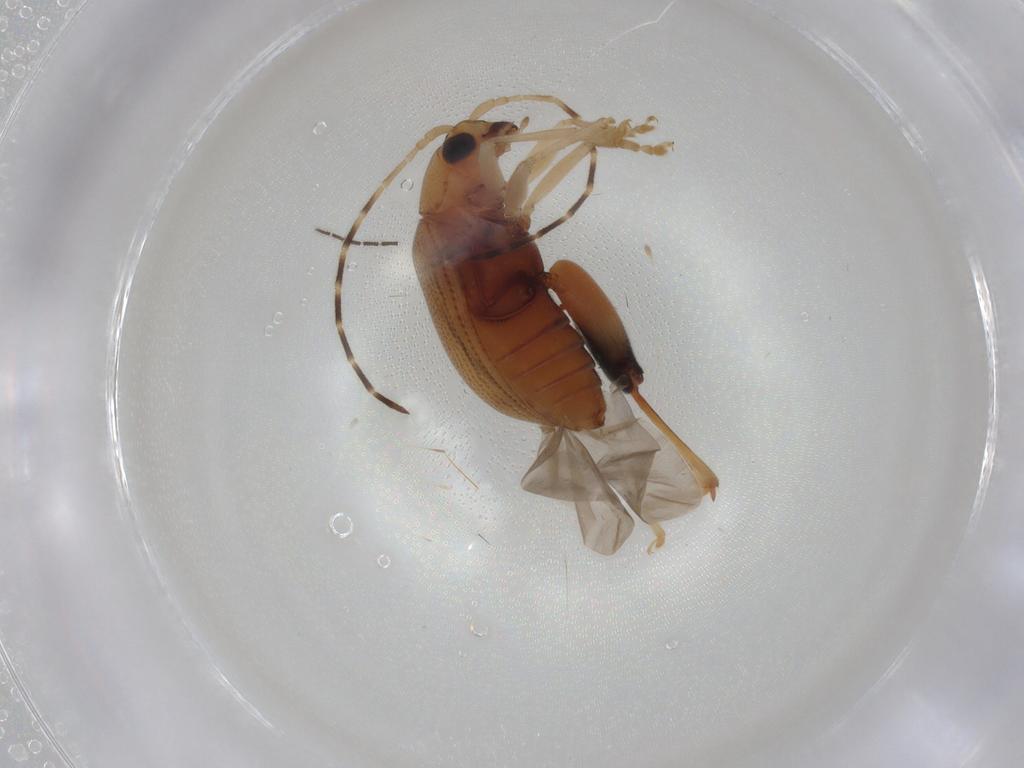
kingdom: Animalia
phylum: Arthropoda
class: Insecta
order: Coleoptera
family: Chrysomelidae
